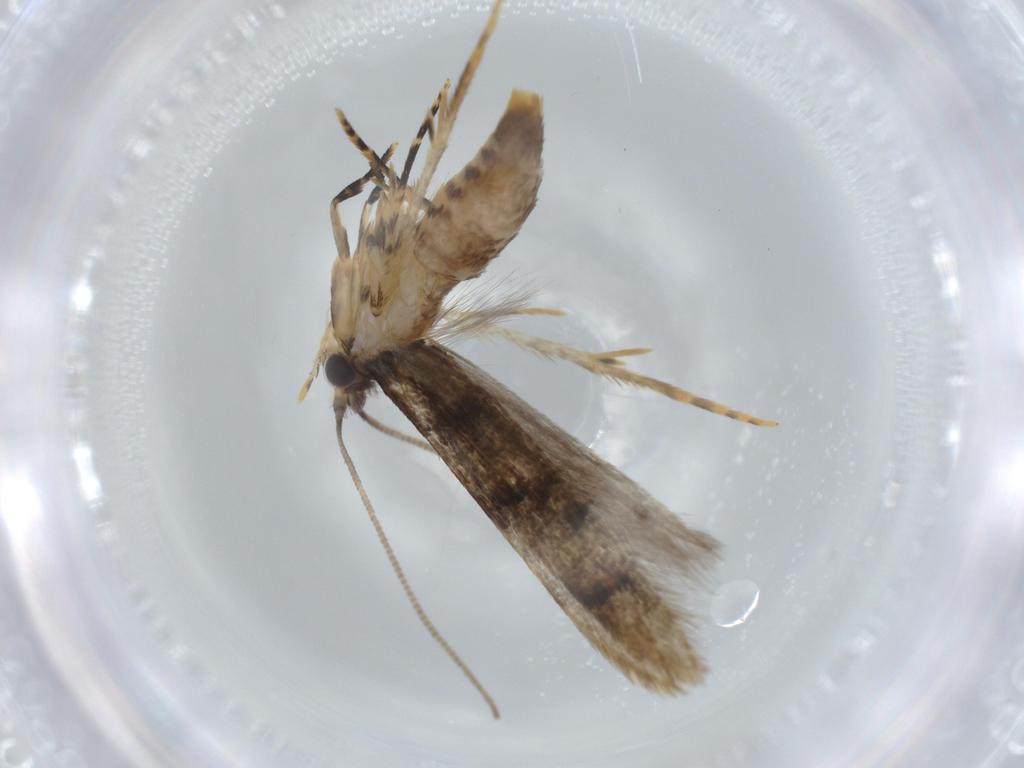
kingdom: Animalia
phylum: Arthropoda
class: Insecta
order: Lepidoptera
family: Tineidae
